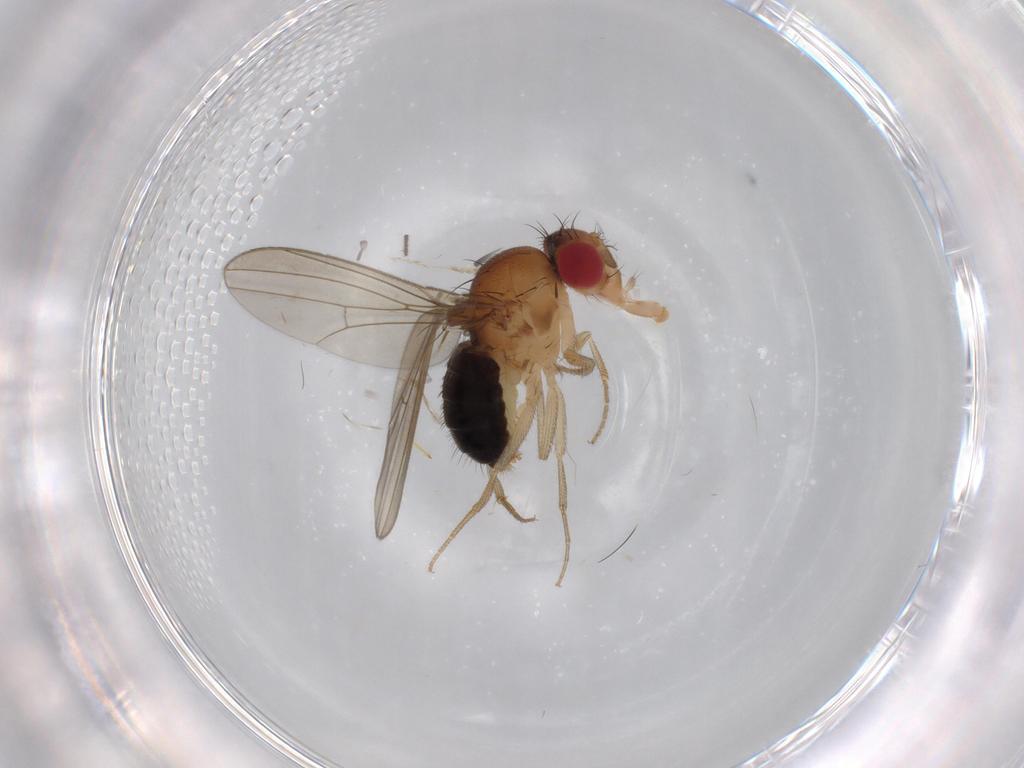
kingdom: Animalia
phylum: Arthropoda
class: Insecta
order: Diptera
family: Drosophilidae
